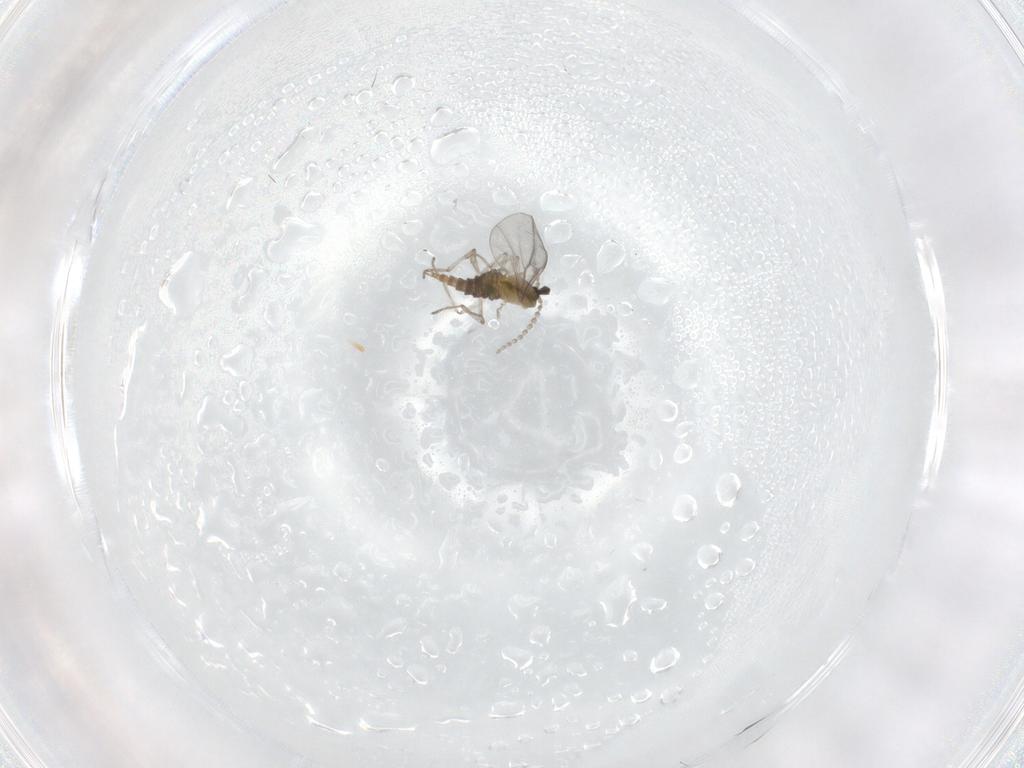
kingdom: Animalia
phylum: Arthropoda
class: Insecta
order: Diptera
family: Cecidomyiidae
